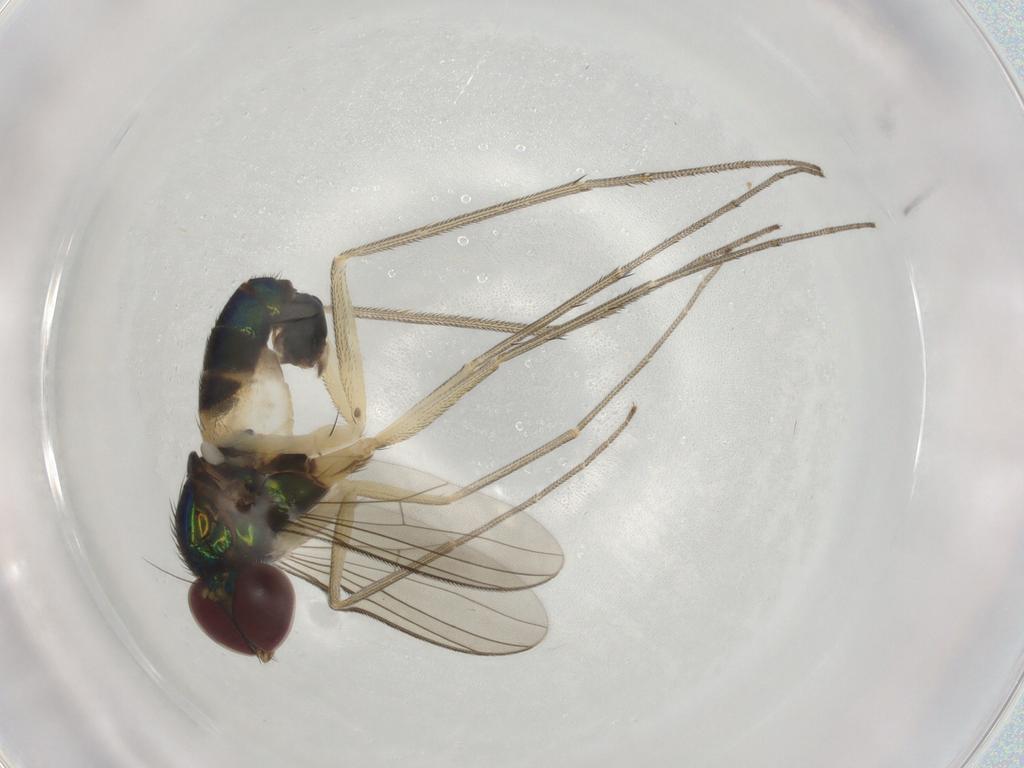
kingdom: Animalia
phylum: Arthropoda
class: Insecta
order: Diptera
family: Dolichopodidae
